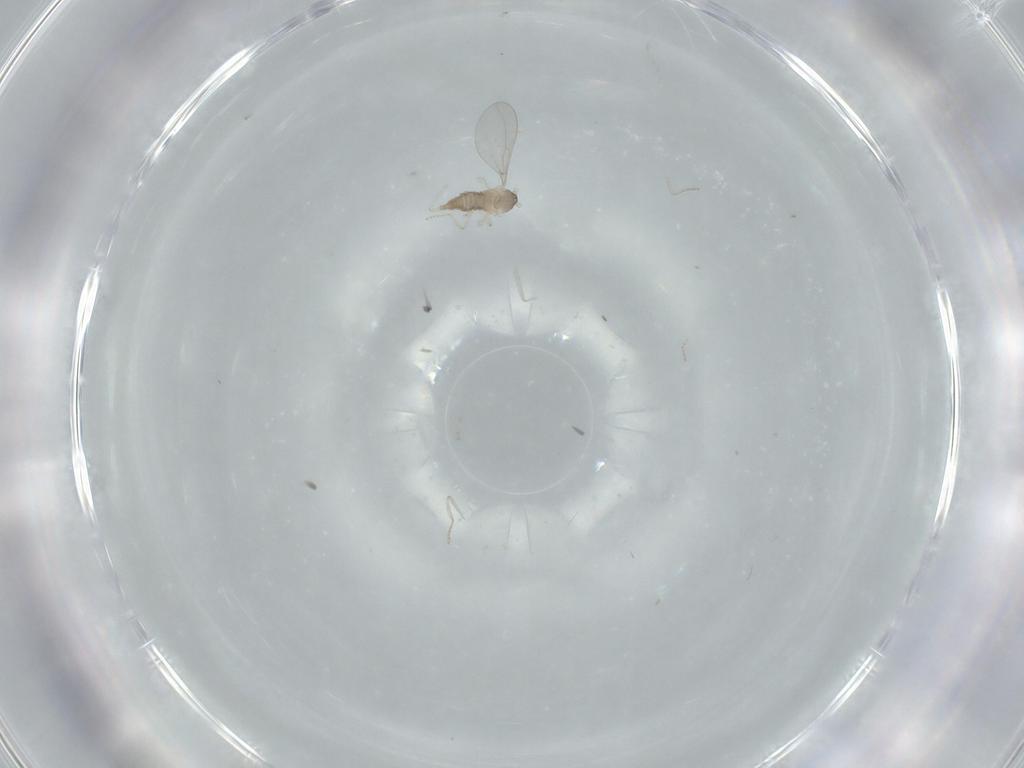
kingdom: Animalia
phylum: Arthropoda
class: Insecta
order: Diptera
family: Cecidomyiidae
